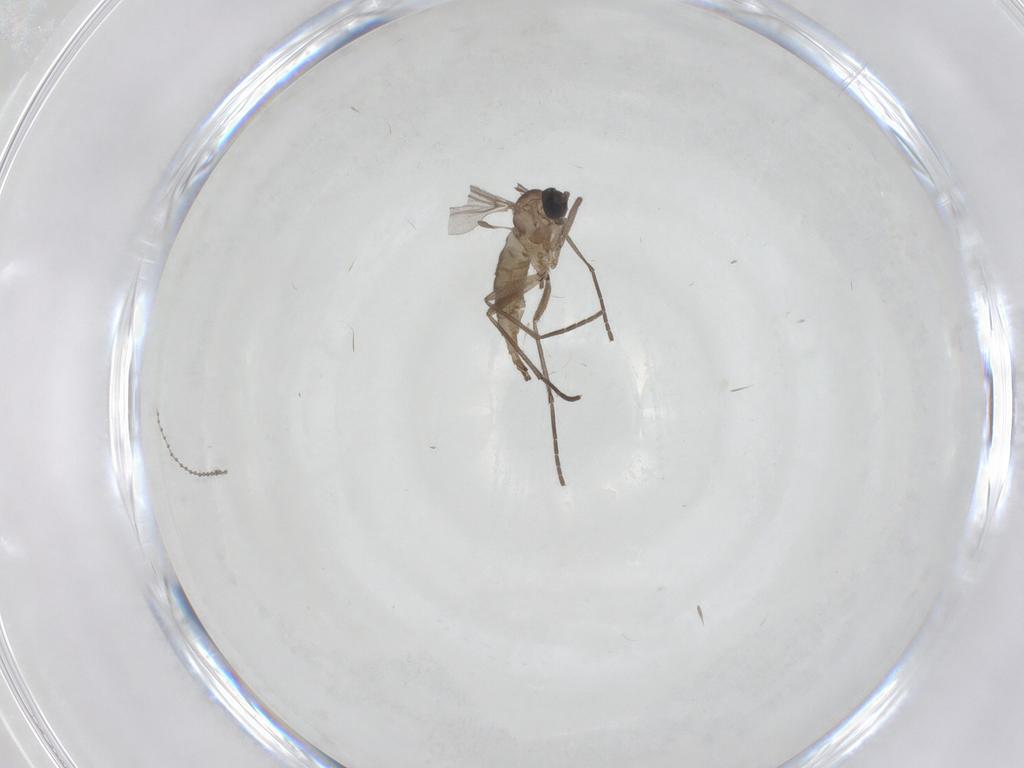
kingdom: Animalia
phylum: Arthropoda
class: Insecta
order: Diptera
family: Sciaridae
